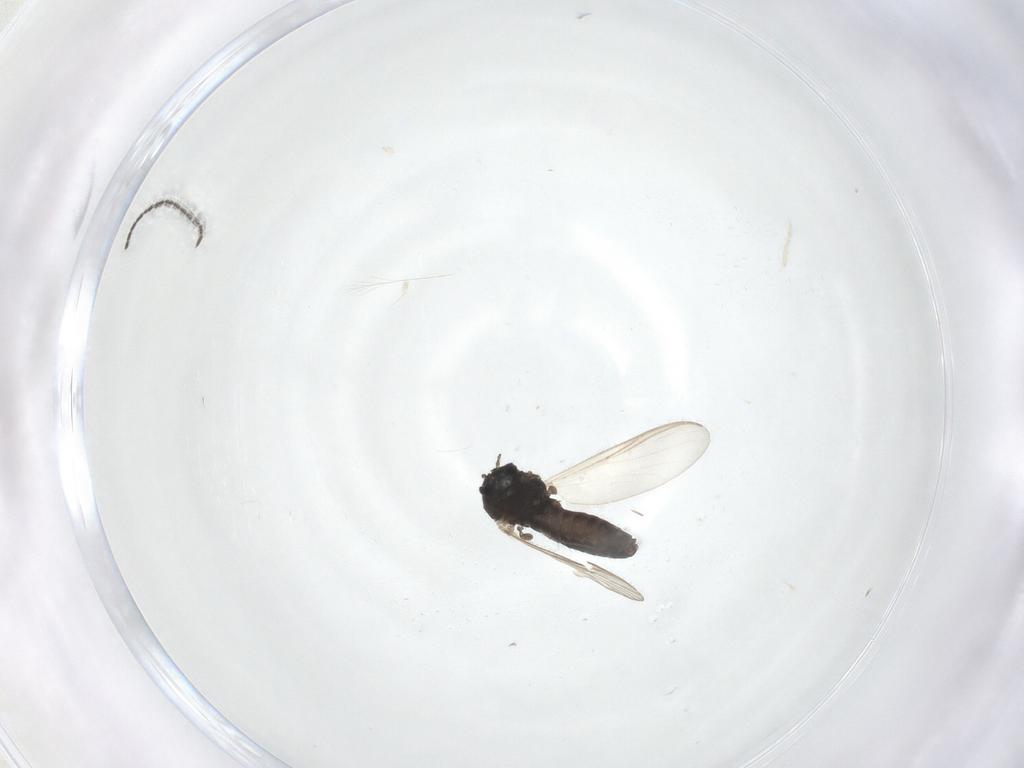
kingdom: Animalia
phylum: Arthropoda
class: Insecta
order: Diptera
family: Chironomidae
